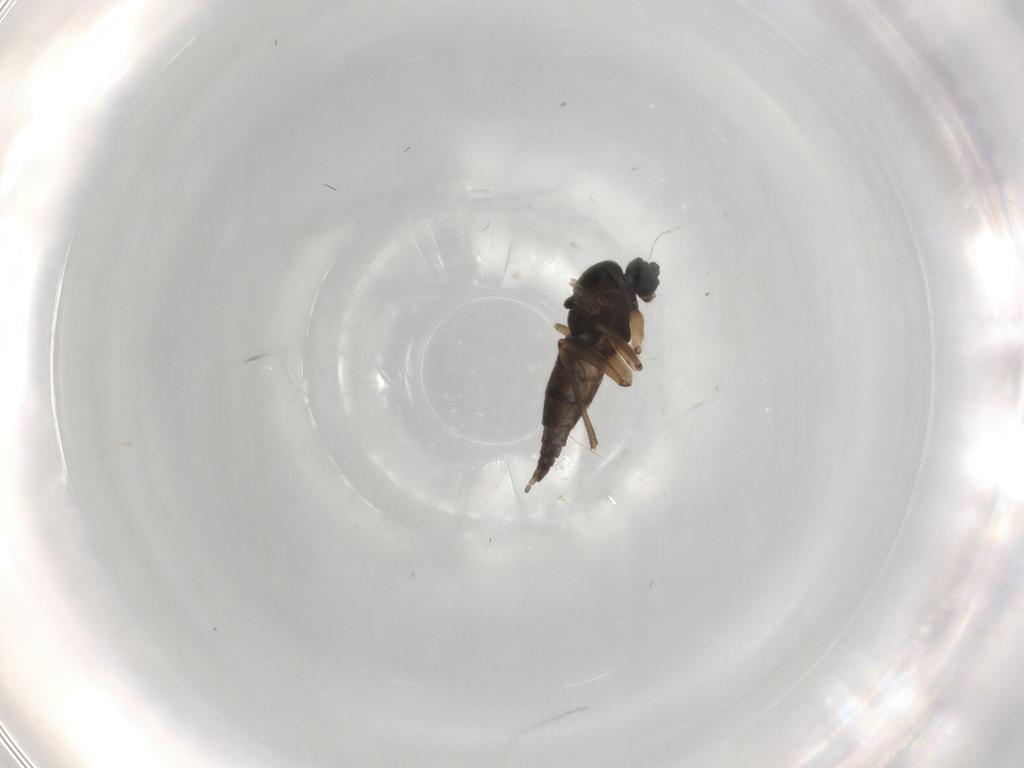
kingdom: Animalia
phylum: Arthropoda
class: Insecta
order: Diptera
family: Sciaridae
